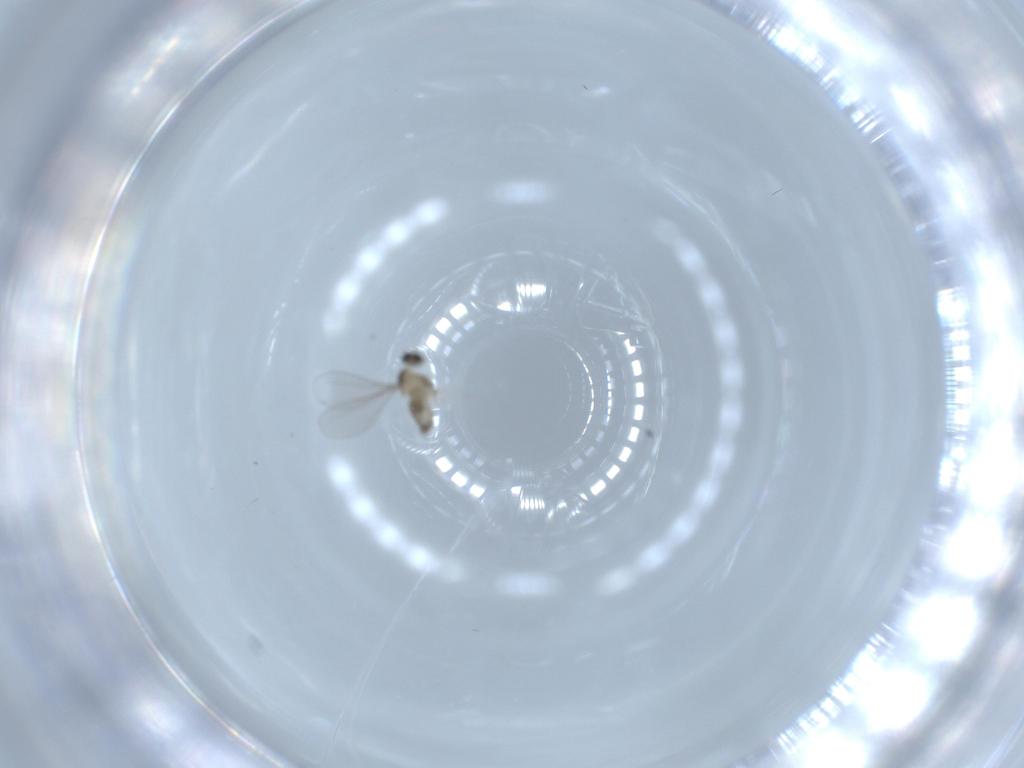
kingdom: Animalia
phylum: Arthropoda
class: Insecta
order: Diptera
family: Cecidomyiidae
